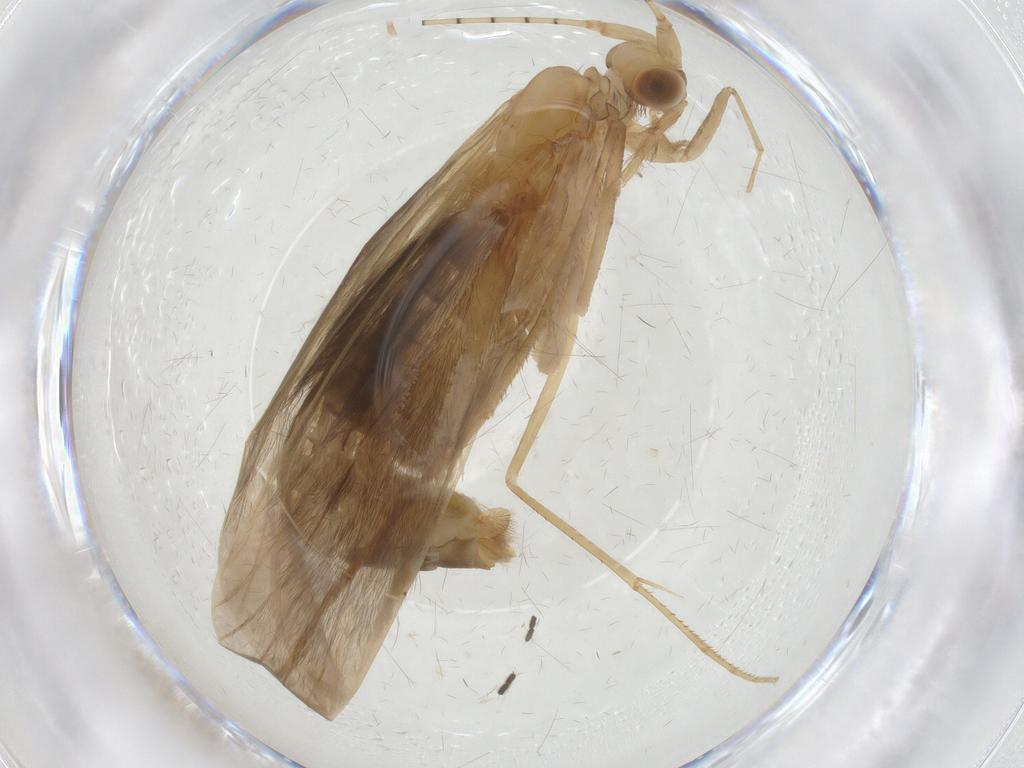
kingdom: Animalia
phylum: Arthropoda
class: Insecta
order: Trichoptera
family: Leptoceridae
